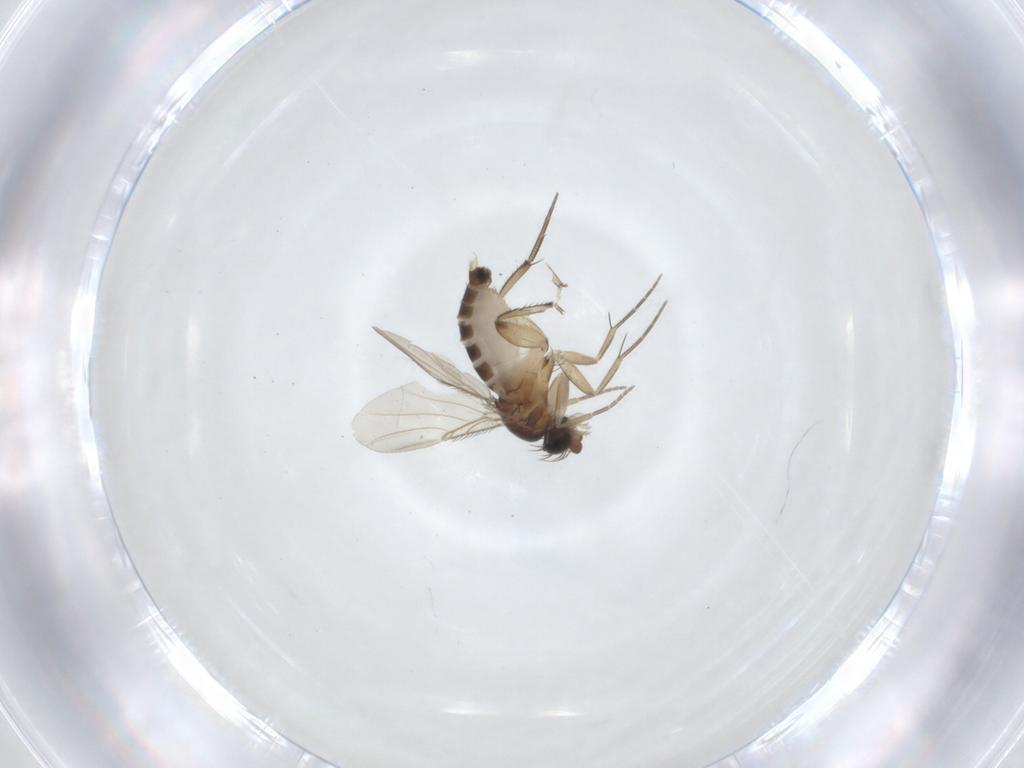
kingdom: Animalia
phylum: Arthropoda
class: Insecta
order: Diptera
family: Phoridae
